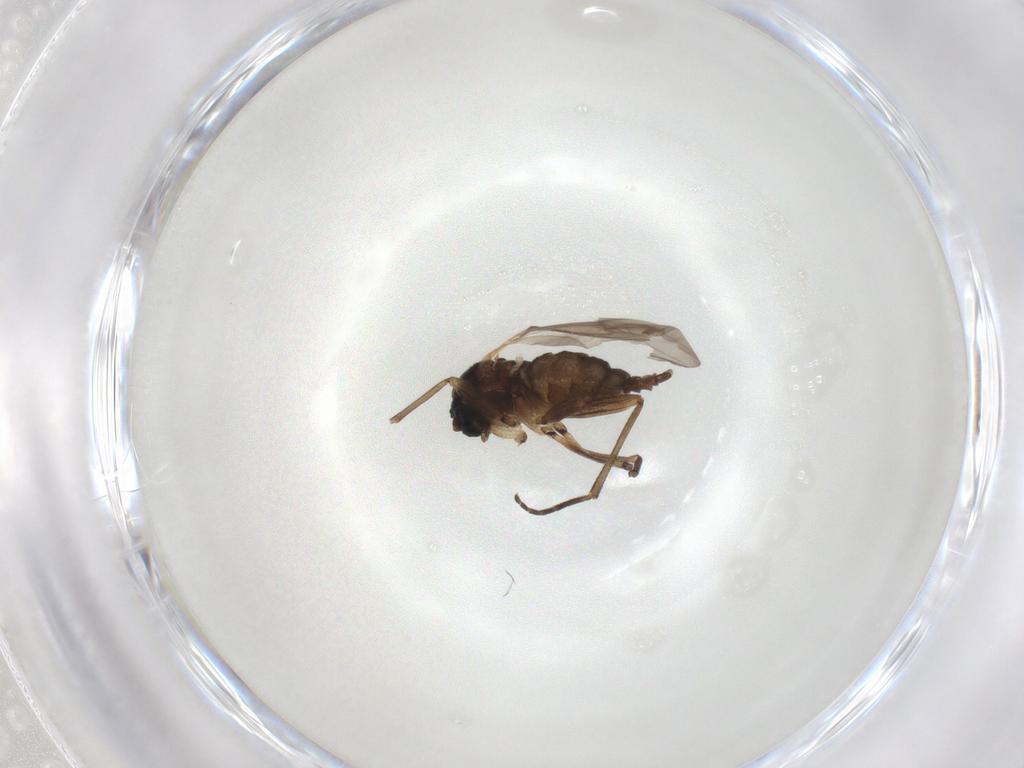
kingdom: Animalia
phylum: Arthropoda
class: Insecta
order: Diptera
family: Sciaridae
